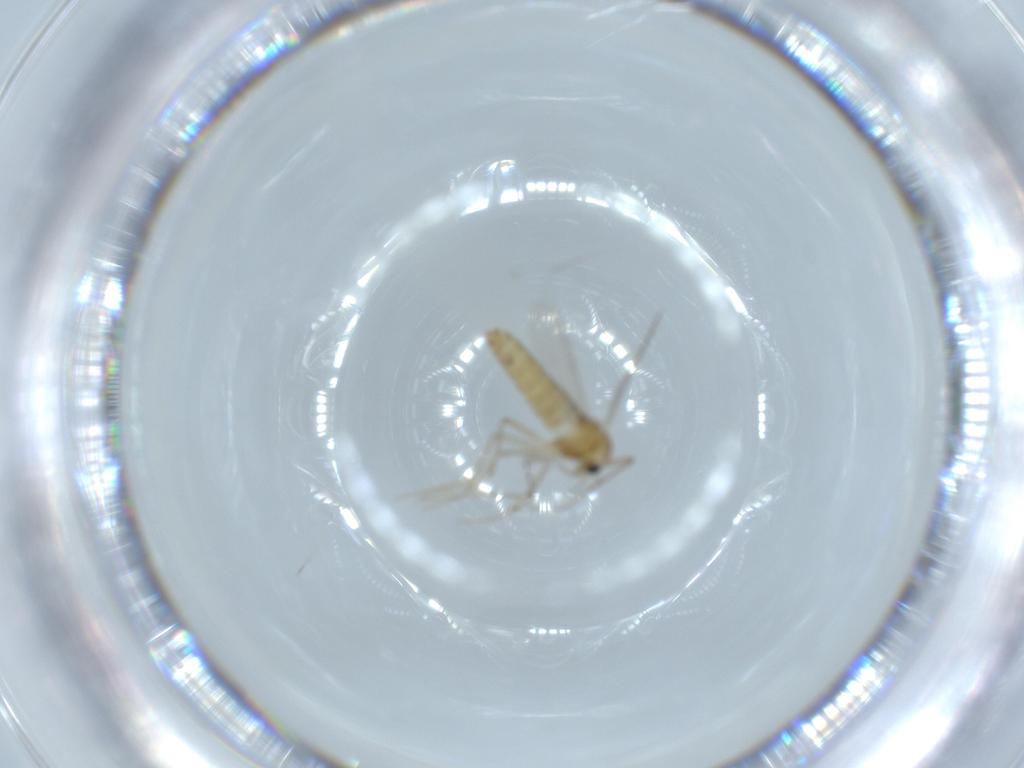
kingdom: Animalia
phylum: Arthropoda
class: Insecta
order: Diptera
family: Chironomidae
